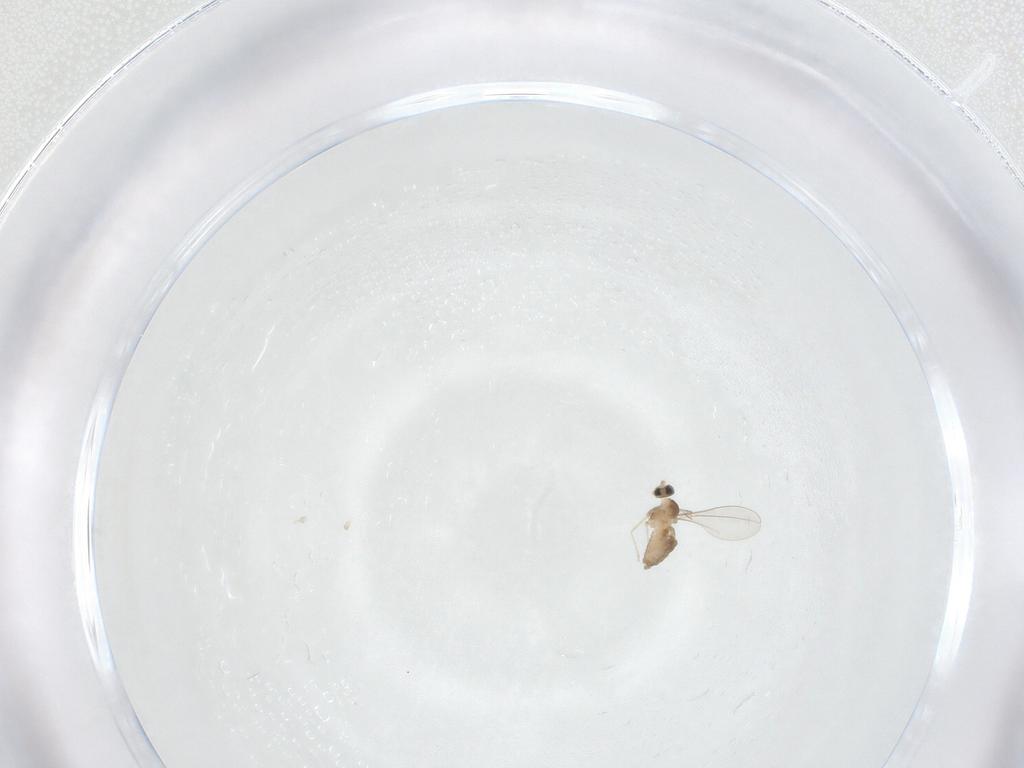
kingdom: Animalia
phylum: Arthropoda
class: Insecta
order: Diptera
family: Cecidomyiidae
